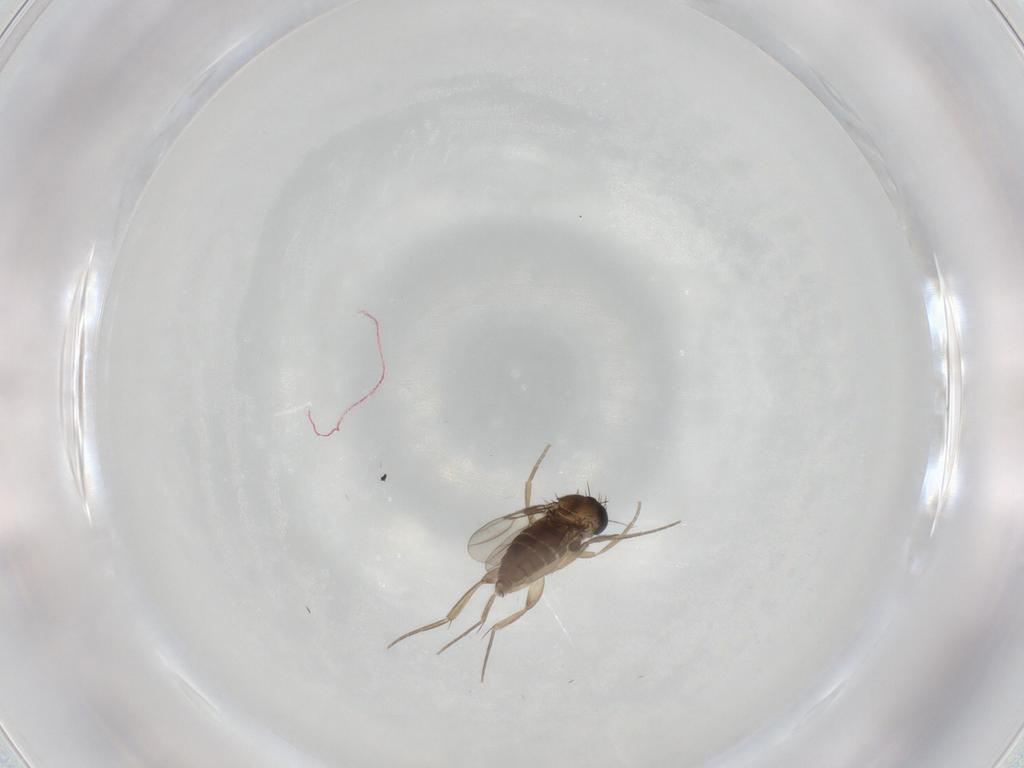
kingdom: Animalia
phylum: Arthropoda
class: Insecta
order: Diptera
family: Phoridae
